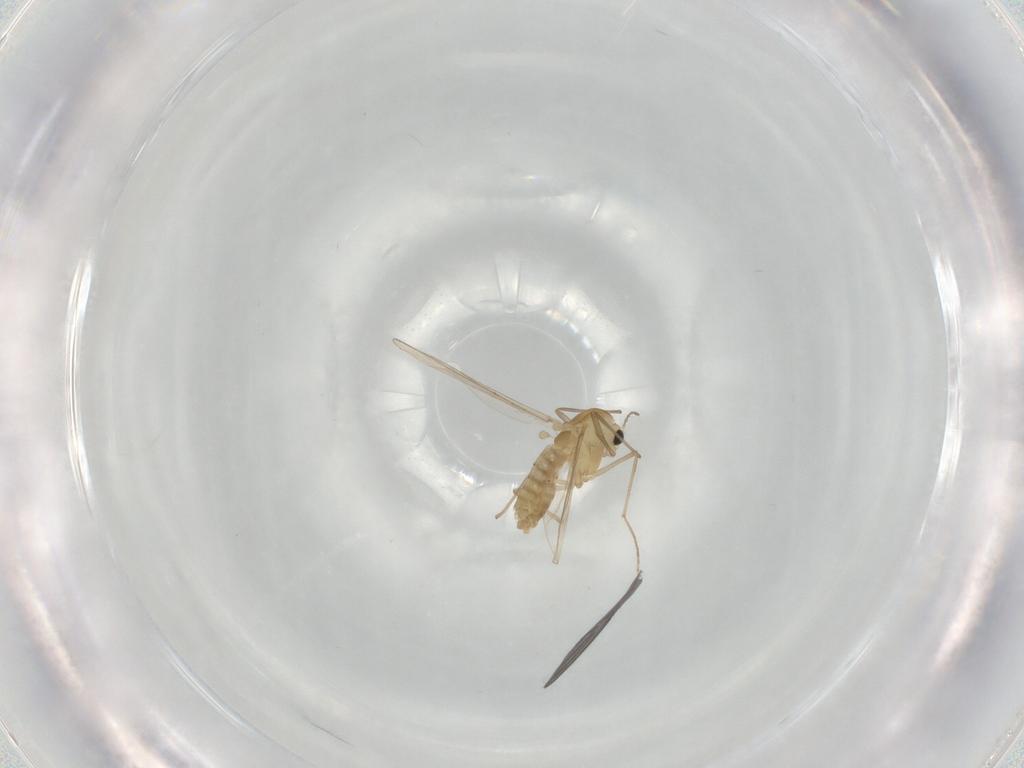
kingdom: Animalia
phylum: Arthropoda
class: Insecta
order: Diptera
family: Chironomidae
